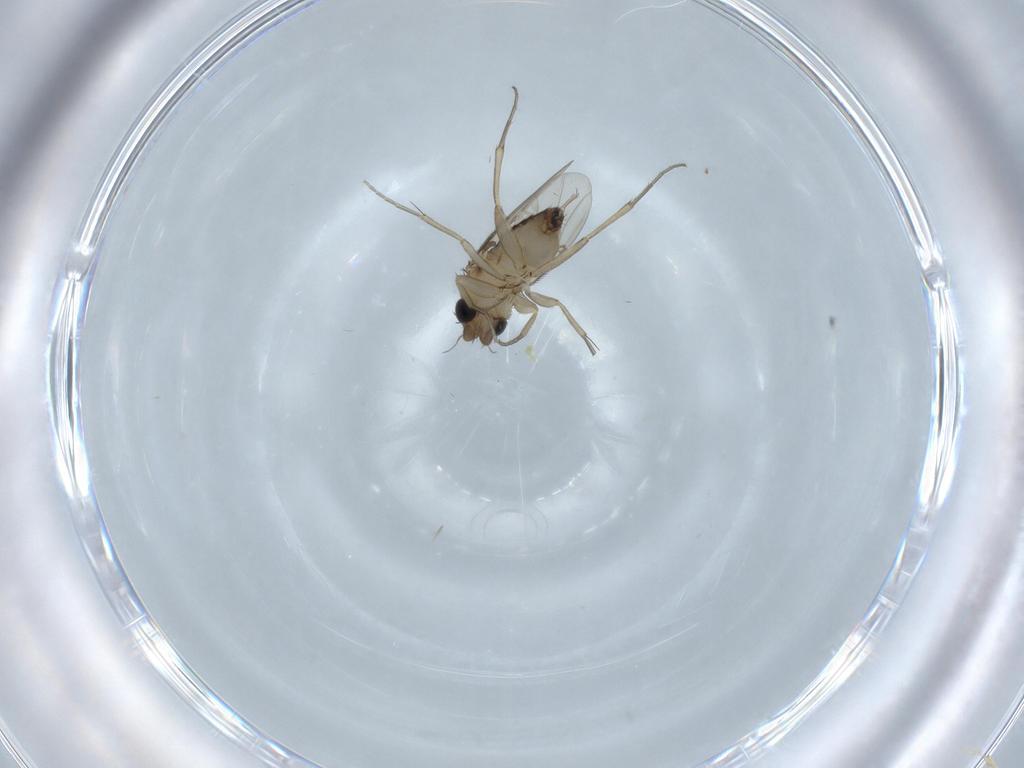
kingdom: Animalia
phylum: Arthropoda
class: Insecta
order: Diptera
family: Phoridae
